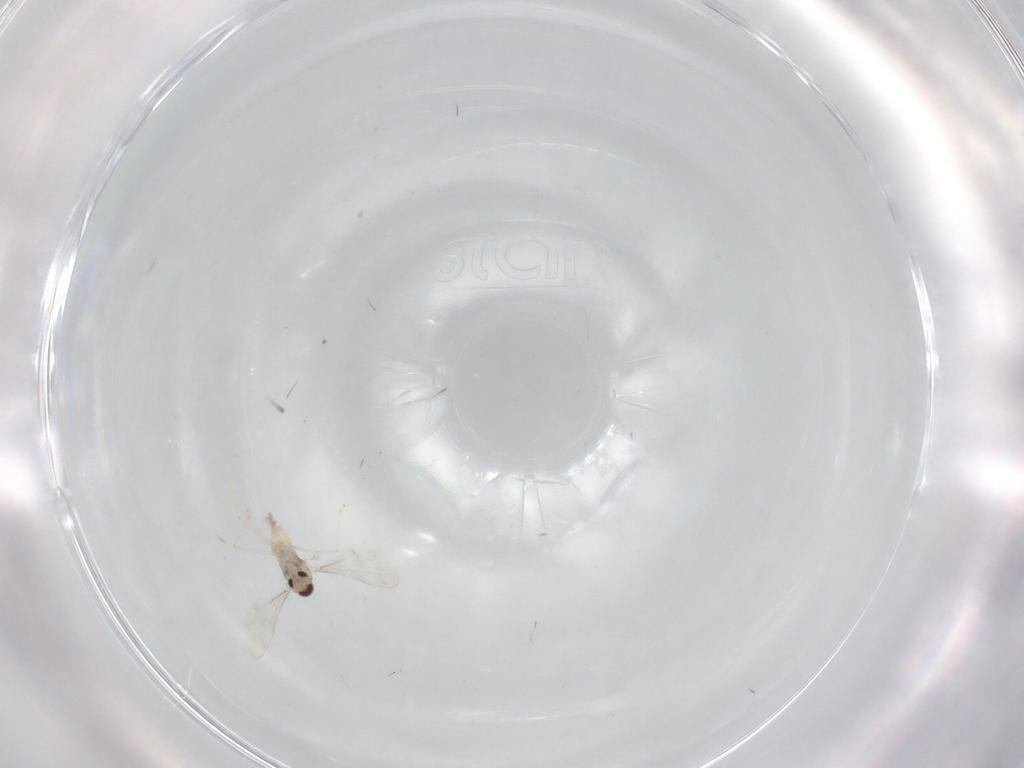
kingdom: Animalia
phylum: Arthropoda
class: Insecta
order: Diptera
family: Cecidomyiidae
